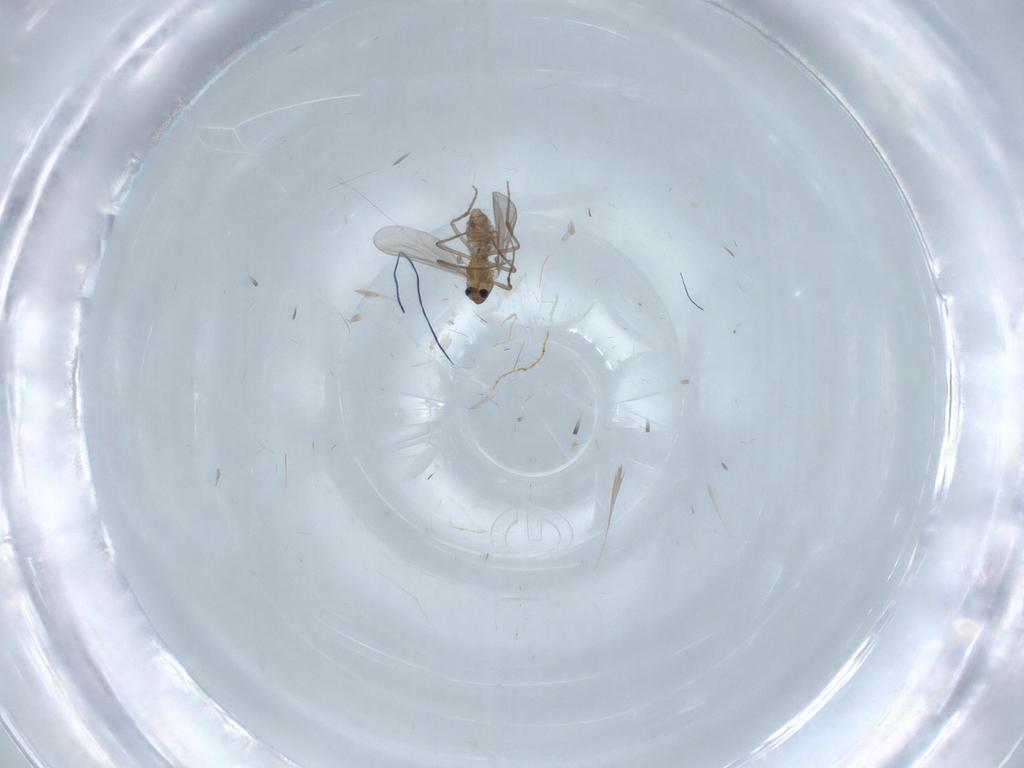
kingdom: Animalia
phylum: Arthropoda
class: Insecta
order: Diptera
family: Chironomidae
